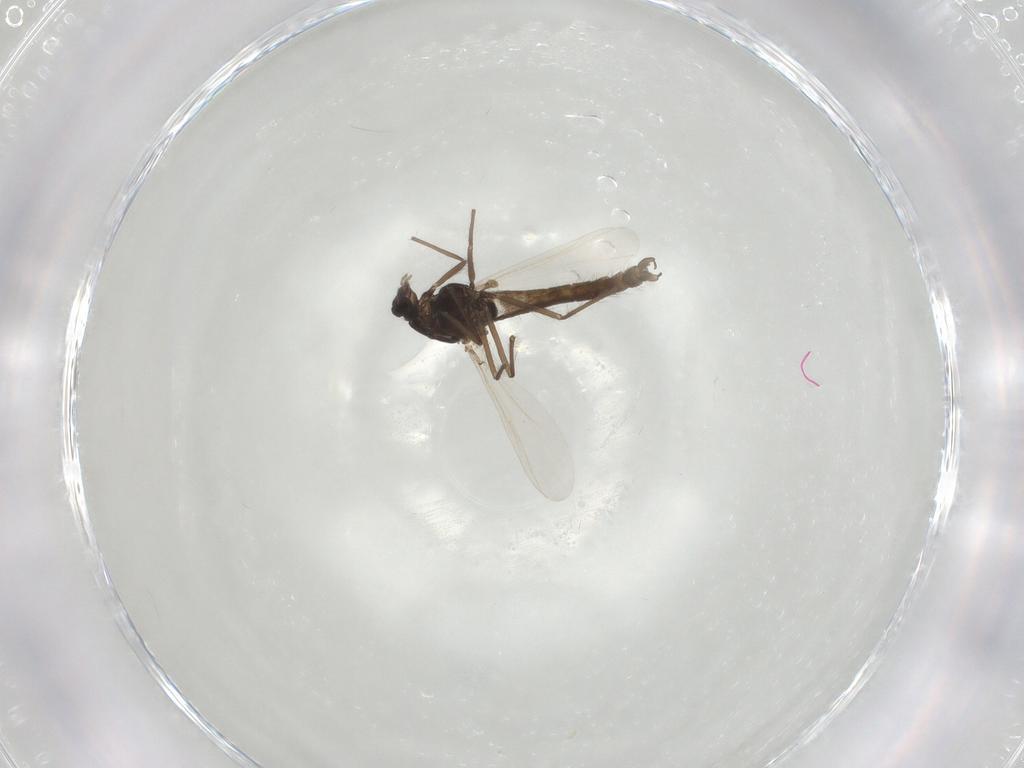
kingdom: Animalia
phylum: Arthropoda
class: Insecta
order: Diptera
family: Chironomidae
